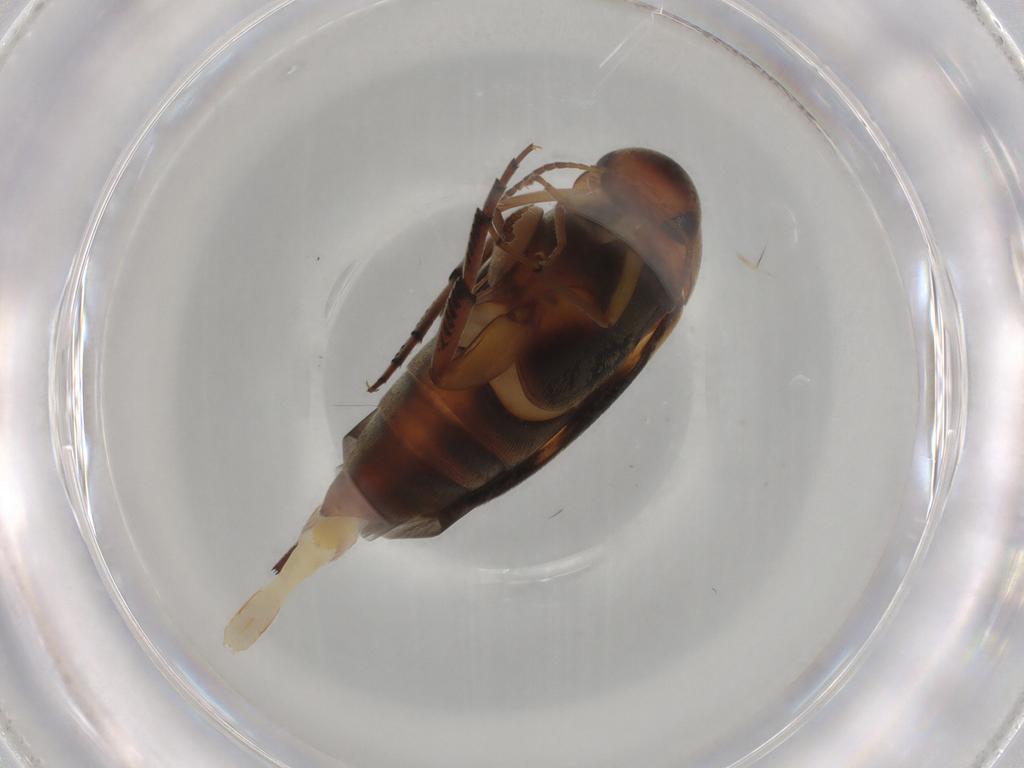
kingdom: Animalia
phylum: Arthropoda
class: Insecta
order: Coleoptera
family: Mordellidae
